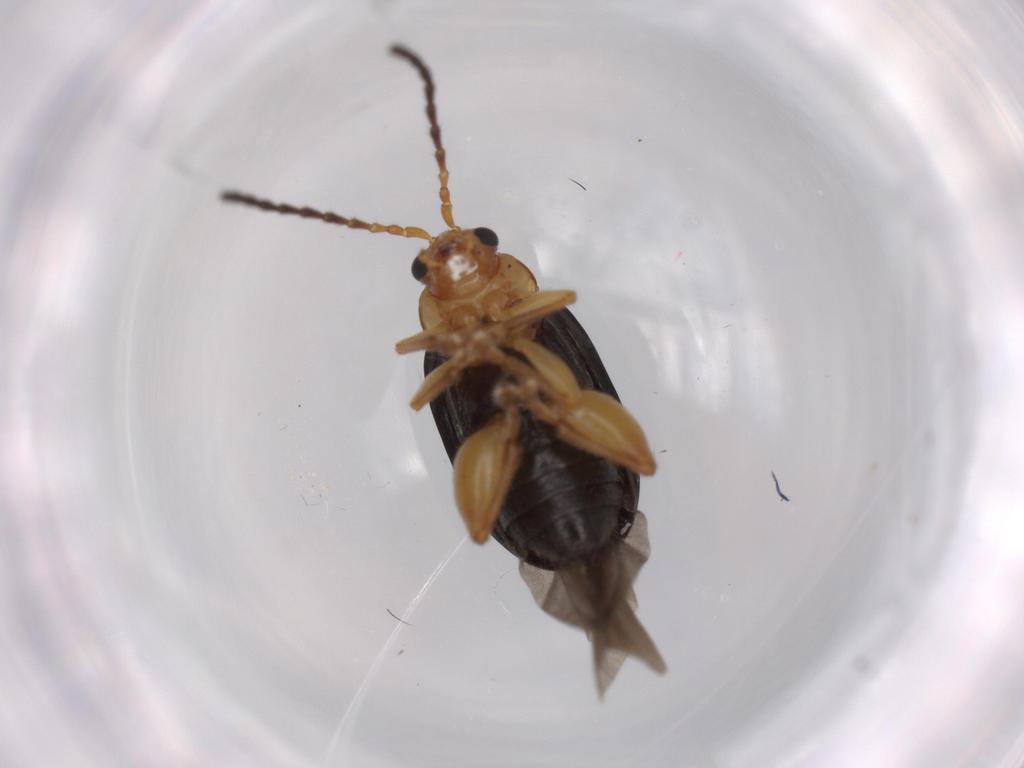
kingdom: Animalia
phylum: Arthropoda
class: Insecta
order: Coleoptera
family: Chrysomelidae
